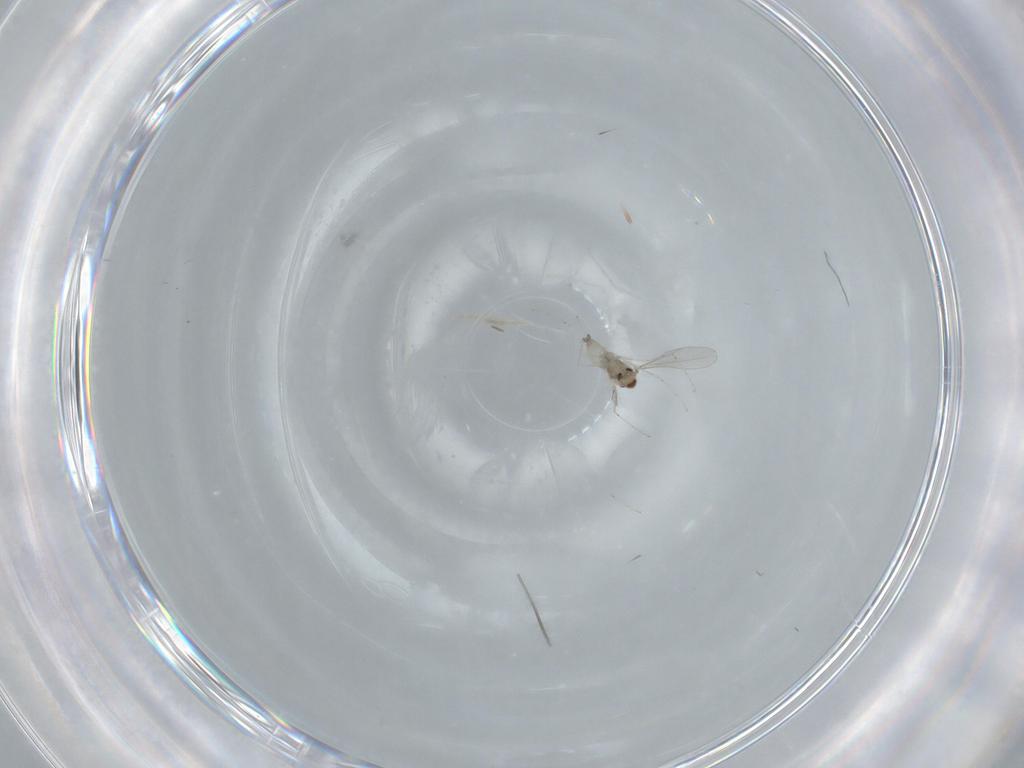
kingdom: Animalia
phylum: Arthropoda
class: Insecta
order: Diptera
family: Cecidomyiidae
